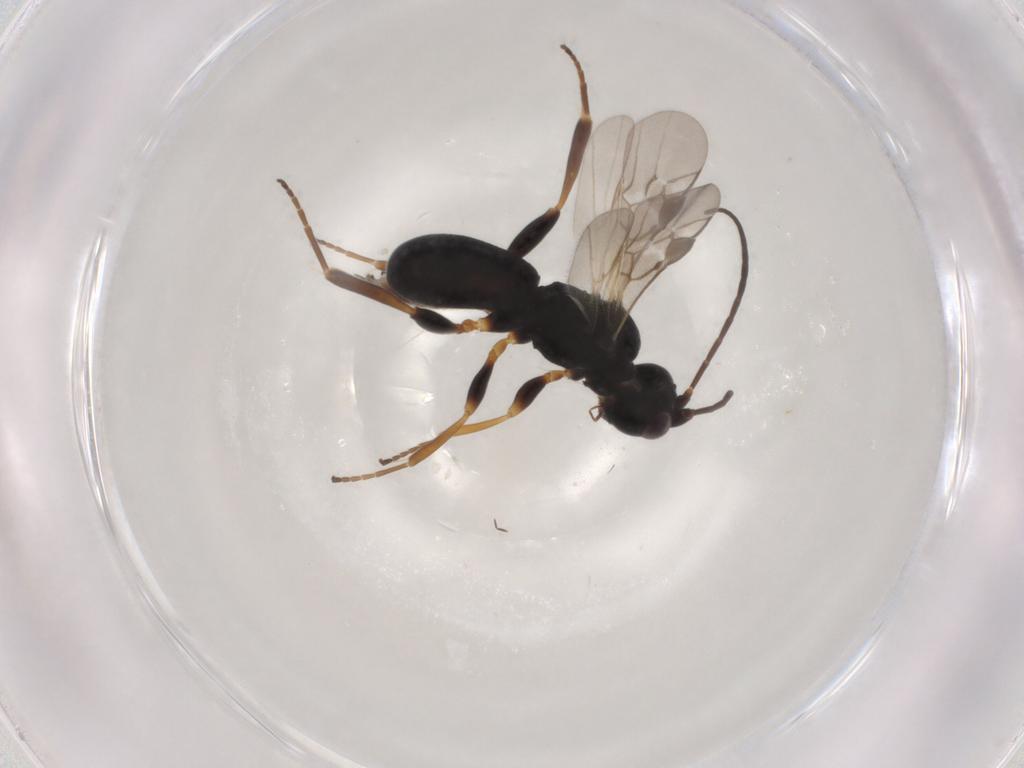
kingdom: Animalia
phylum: Arthropoda
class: Insecta
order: Hymenoptera
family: Braconidae
